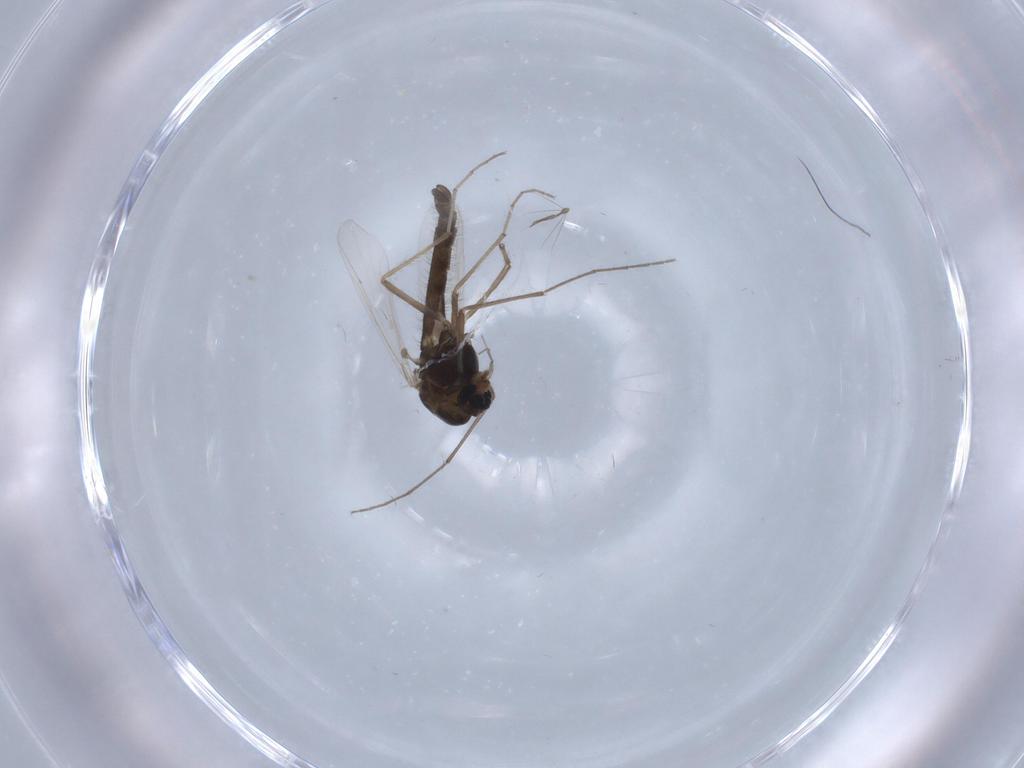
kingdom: Animalia
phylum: Arthropoda
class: Insecta
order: Diptera
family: Chironomidae
